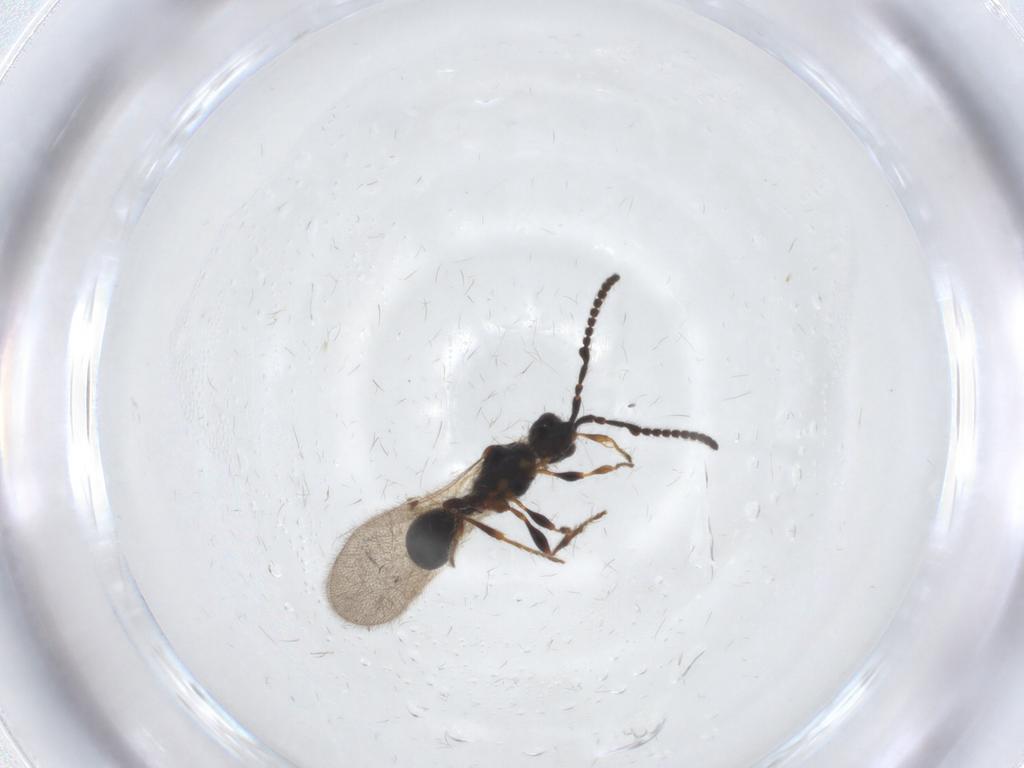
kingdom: Animalia
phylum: Arthropoda
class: Insecta
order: Hymenoptera
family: Diapriidae
